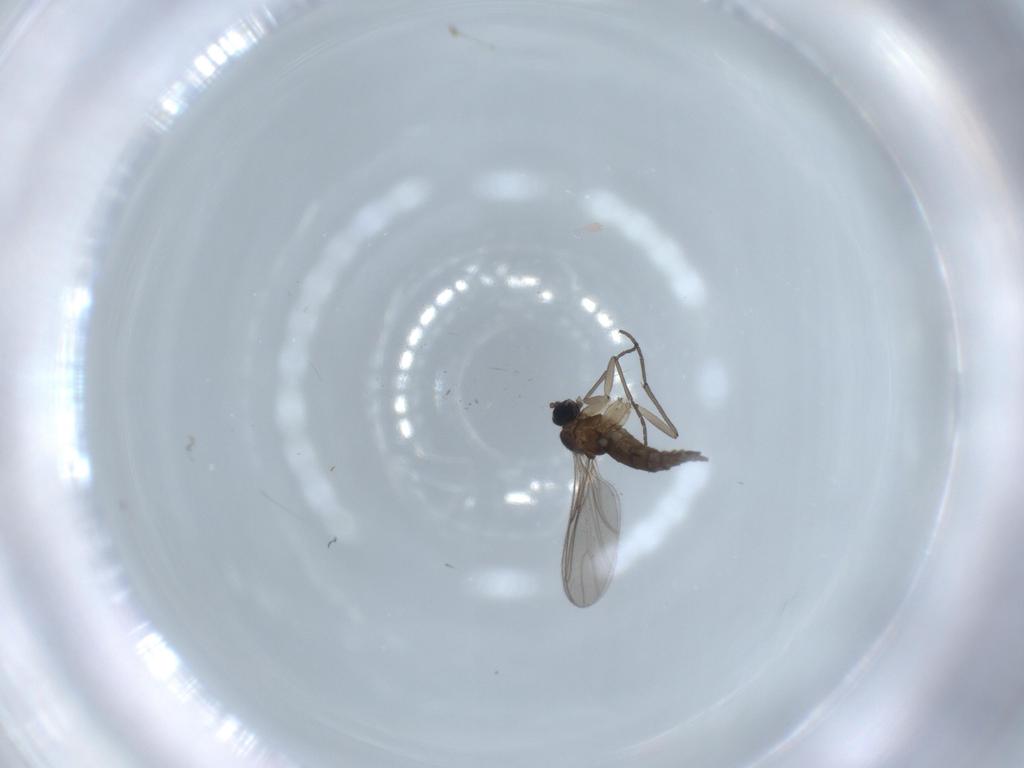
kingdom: Animalia
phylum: Arthropoda
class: Insecta
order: Diptera
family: Sciaridae
